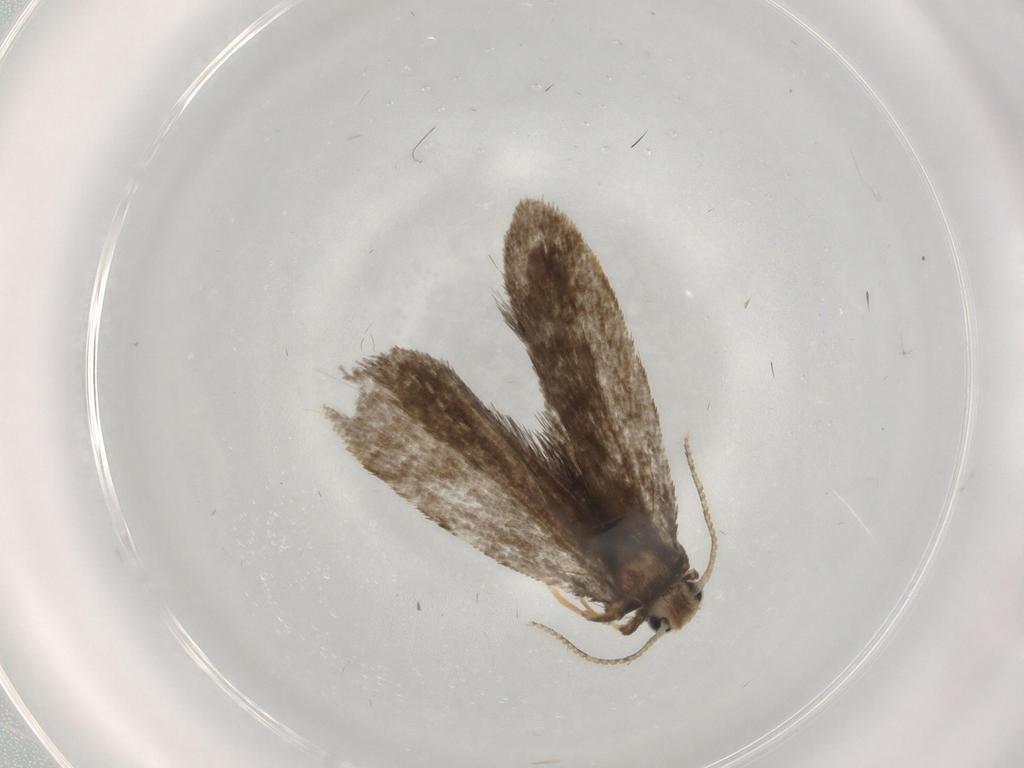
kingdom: Animalia
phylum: Arthropoda
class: Insecta
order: Lepidoptera
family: Psychidae
